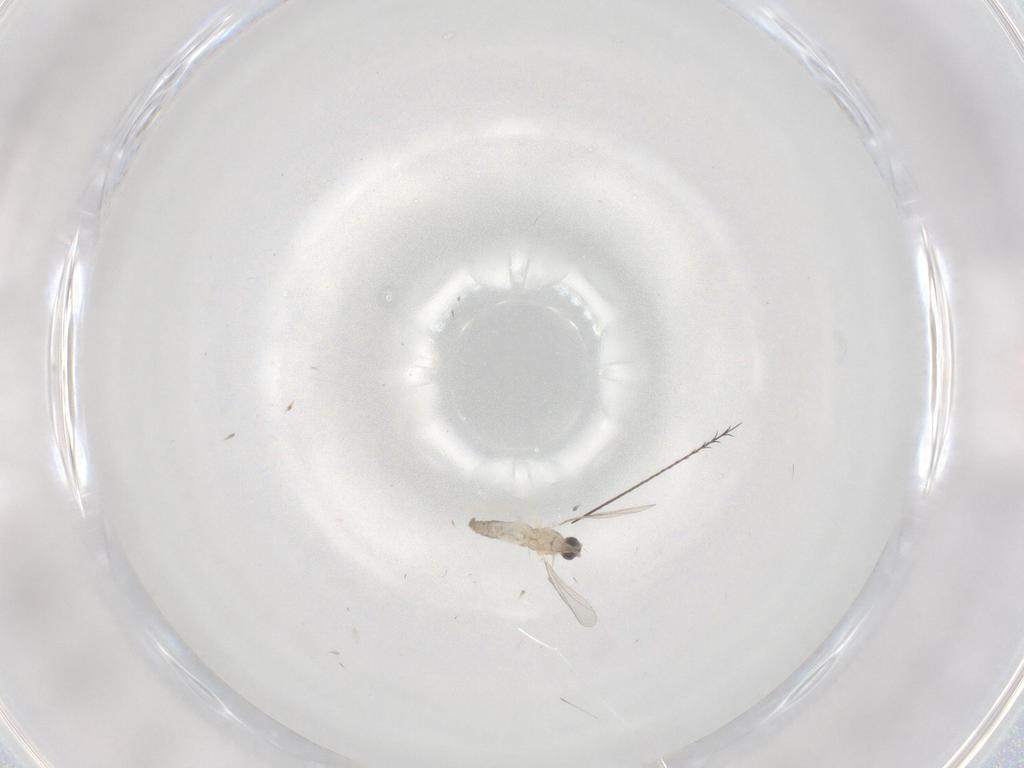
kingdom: Animalia
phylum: Arthropoda
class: Insecta
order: Diptera
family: Cecidomyiidae
